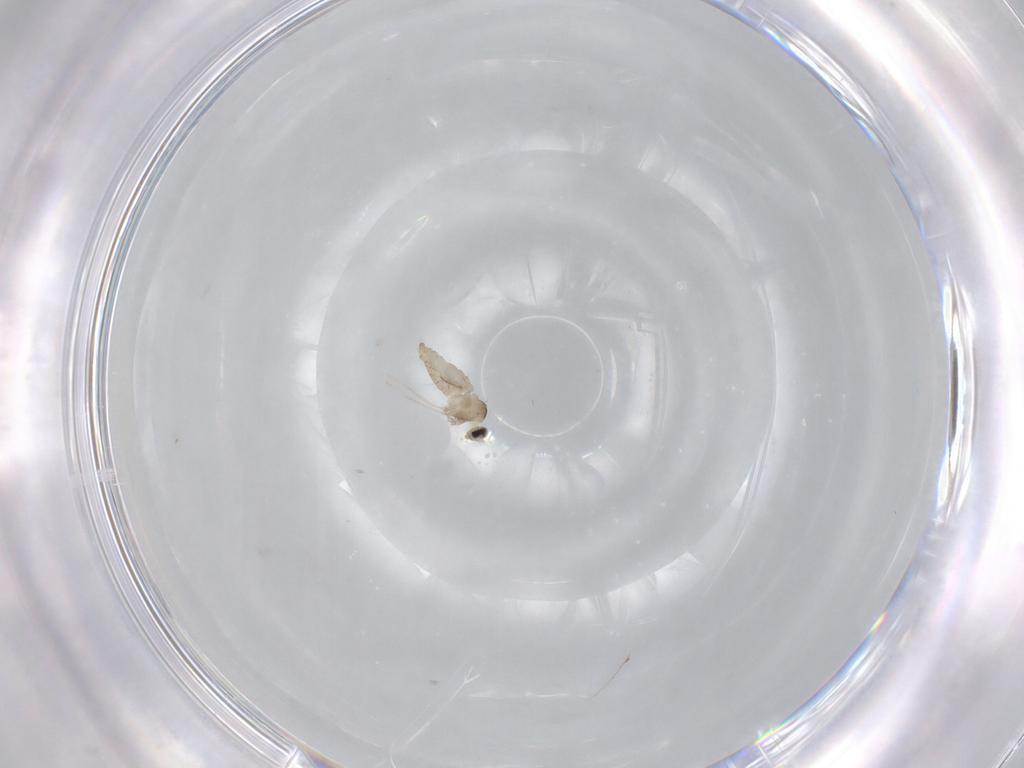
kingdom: Animalia
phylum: Arthropoda
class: Insecta
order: Diptera
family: Cecidomyiidae
